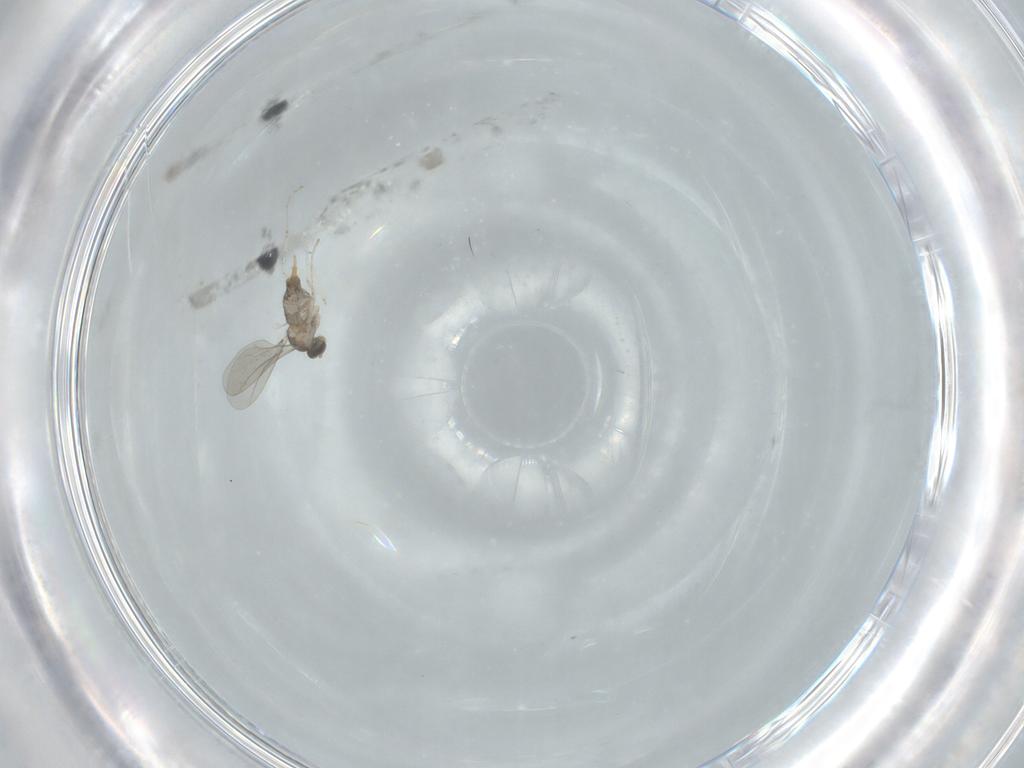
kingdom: Animalia
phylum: Arthropoda
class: Insecta
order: Diptera
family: Cecidomyiidae
